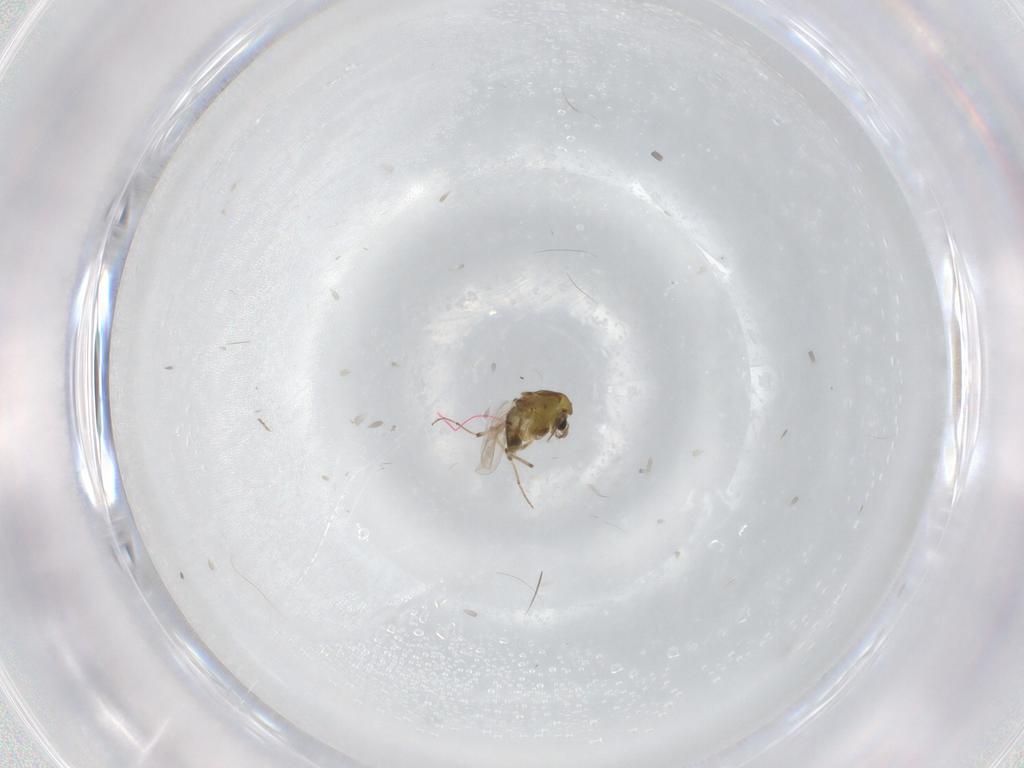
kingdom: Animalia
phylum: Arthropoda
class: Insecta
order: Diptera
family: Chironomidae
